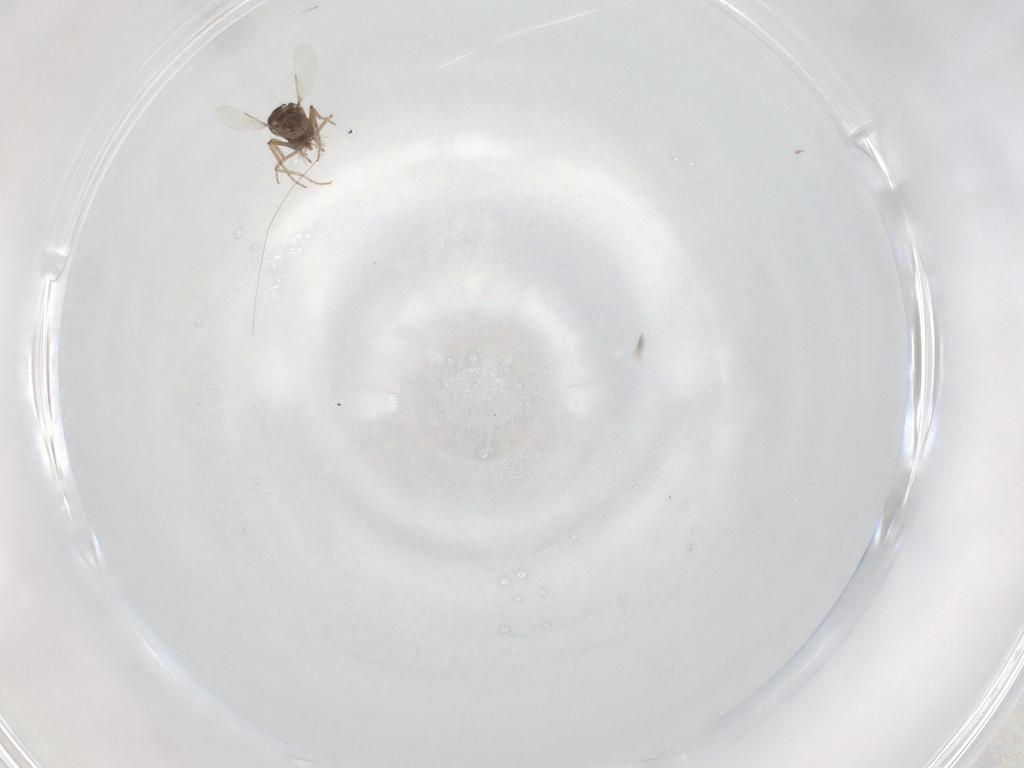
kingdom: Animalia
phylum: Arthropoda
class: Insecta
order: Diptera
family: Ceratopogonidae
